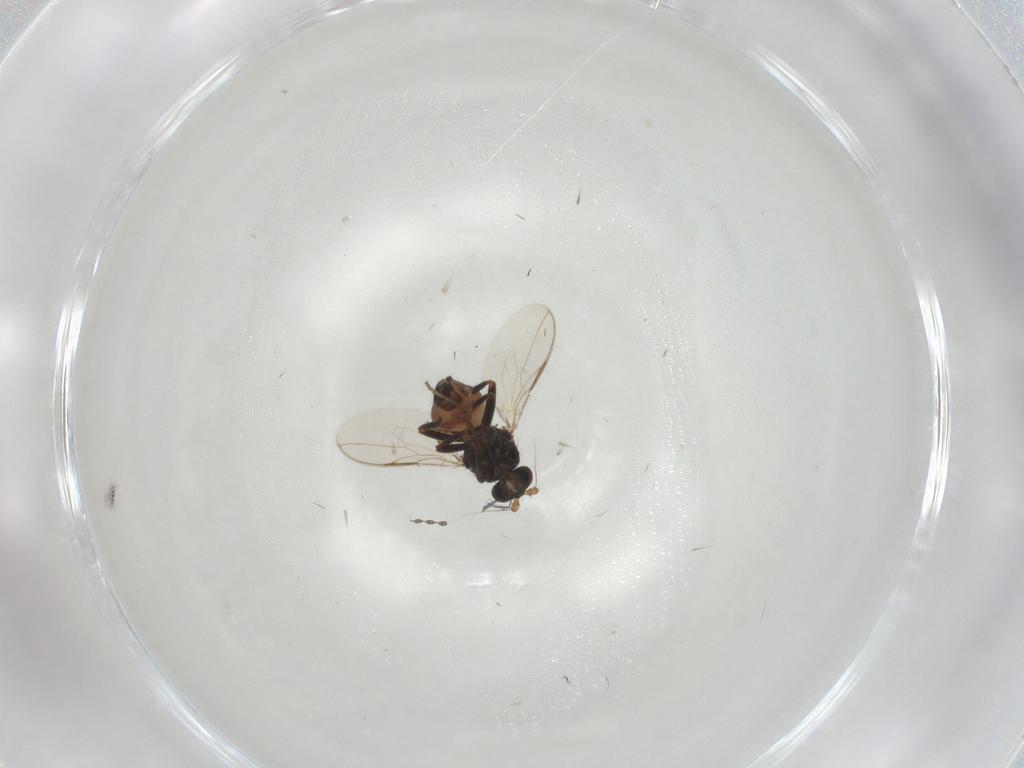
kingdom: Animalia
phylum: Arthropoda
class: Insecta
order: Diptera
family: Sphaeroceridae
